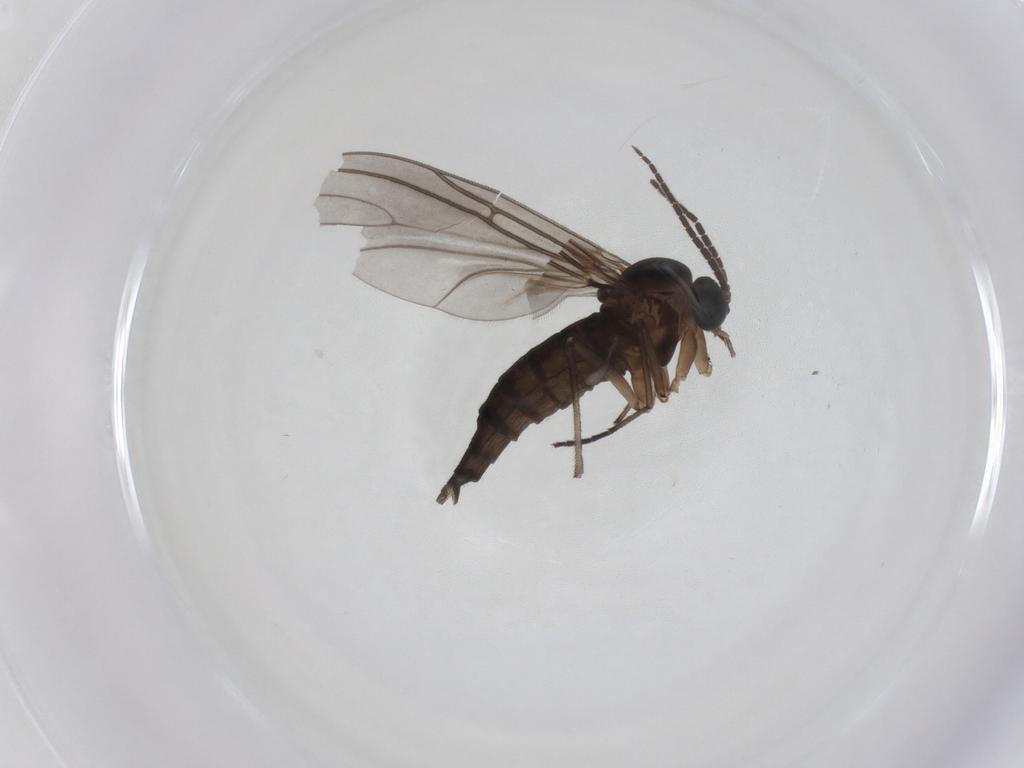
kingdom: Animalia
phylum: Arthropoda
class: Insecta
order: Diptera
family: Sciaridae
